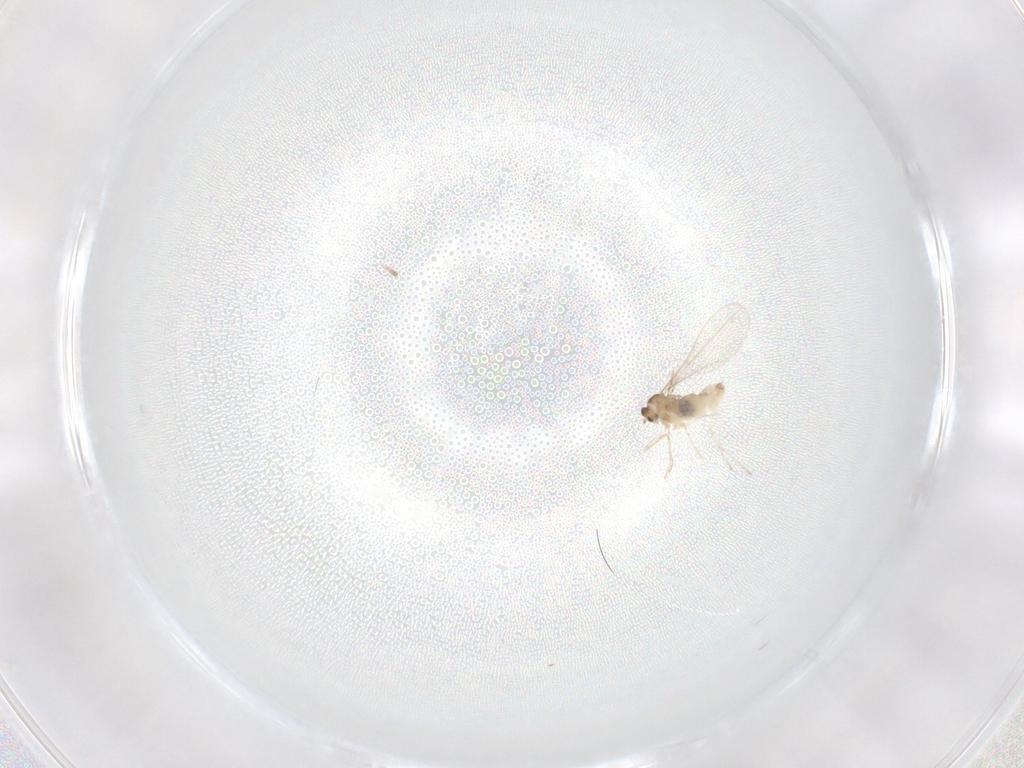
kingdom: Animalia
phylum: Arthropoda
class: Insecta
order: Diptera
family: Cecidomyiidae
